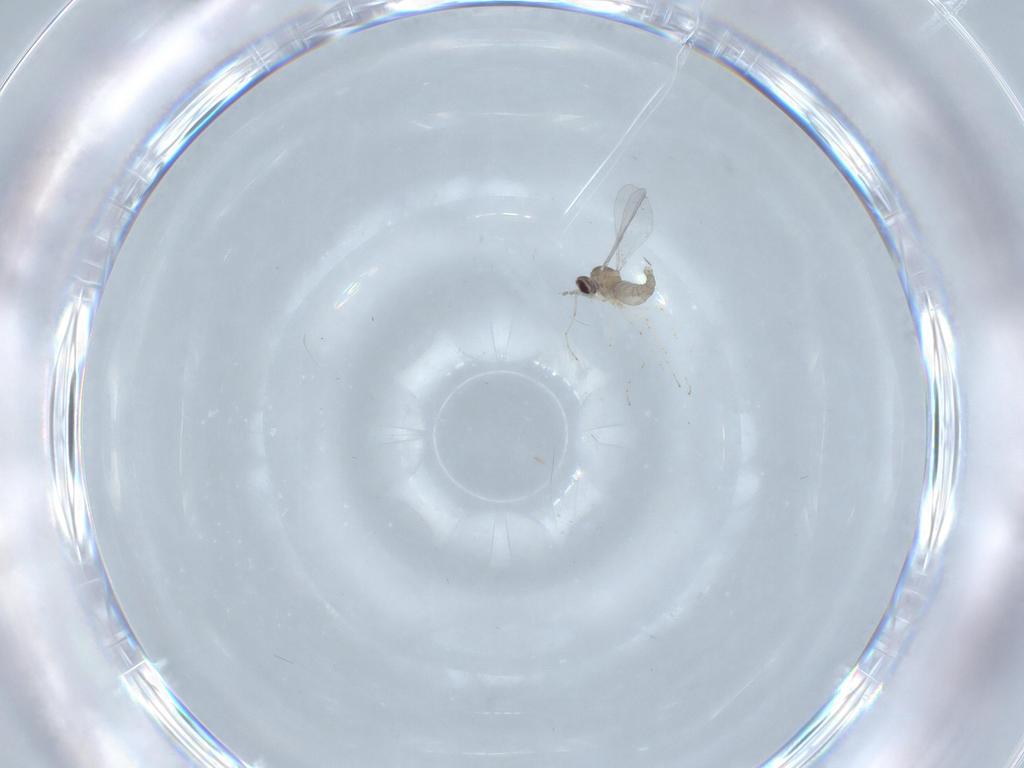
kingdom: Animalia
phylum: Arthropoda
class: Insecta
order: Diptera
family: Cecidomyiidae
